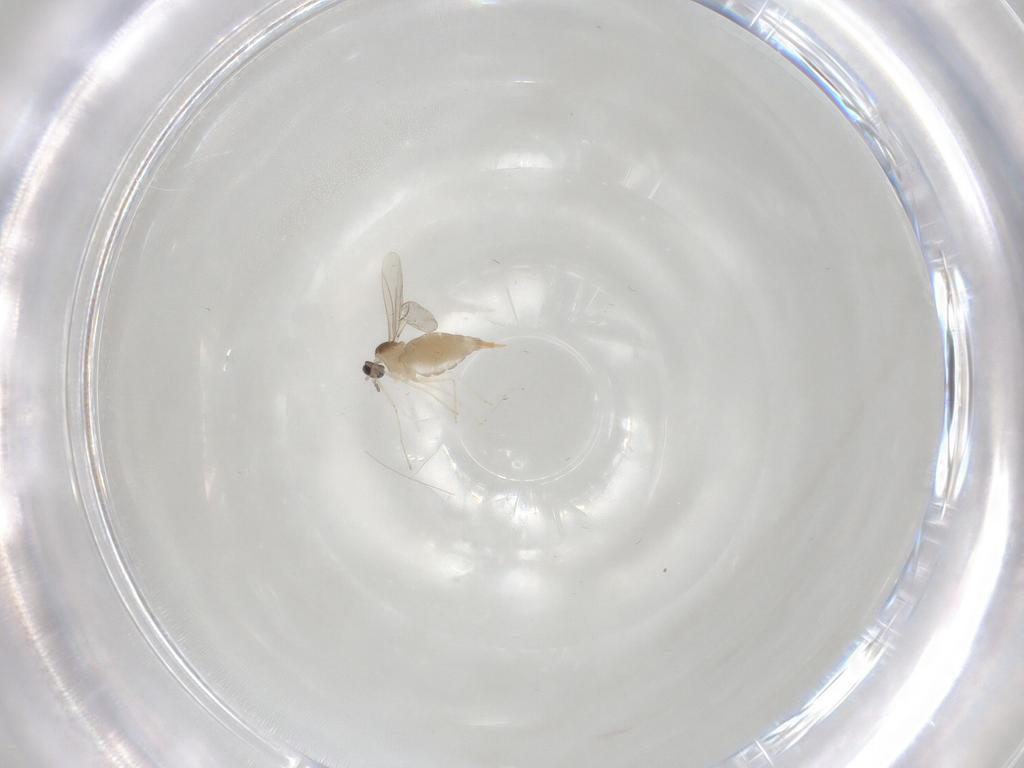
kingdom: Animalia
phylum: Arthropoda
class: Insecta
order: Diptera
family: Cecidomyiidae
